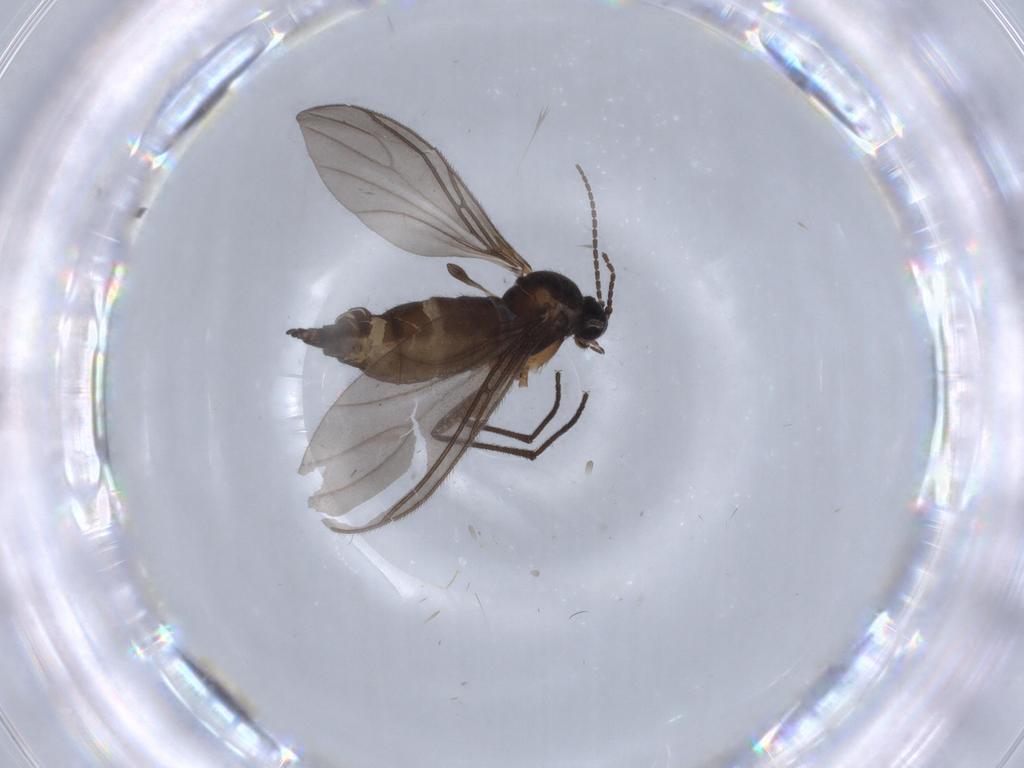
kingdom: Animalia
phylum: Arthropoda
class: Insecta
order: Diptera
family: Sciaridae
